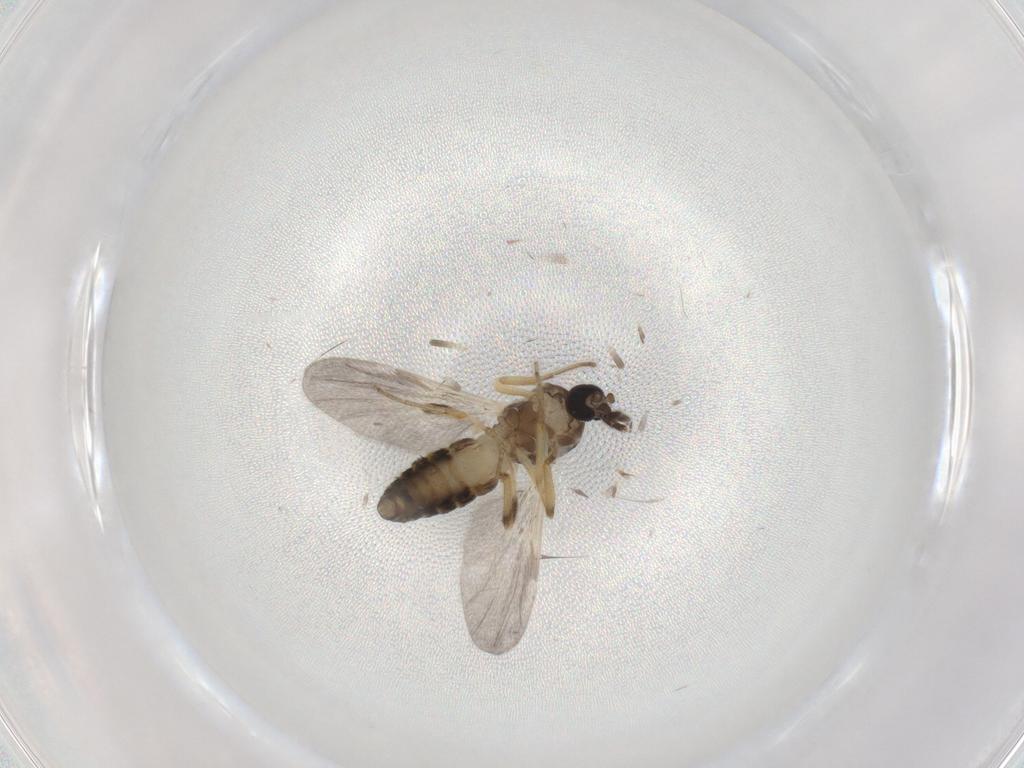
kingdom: Animalia
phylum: Arthropoda
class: Insecta
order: Diptera
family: Ceratopogonidae
